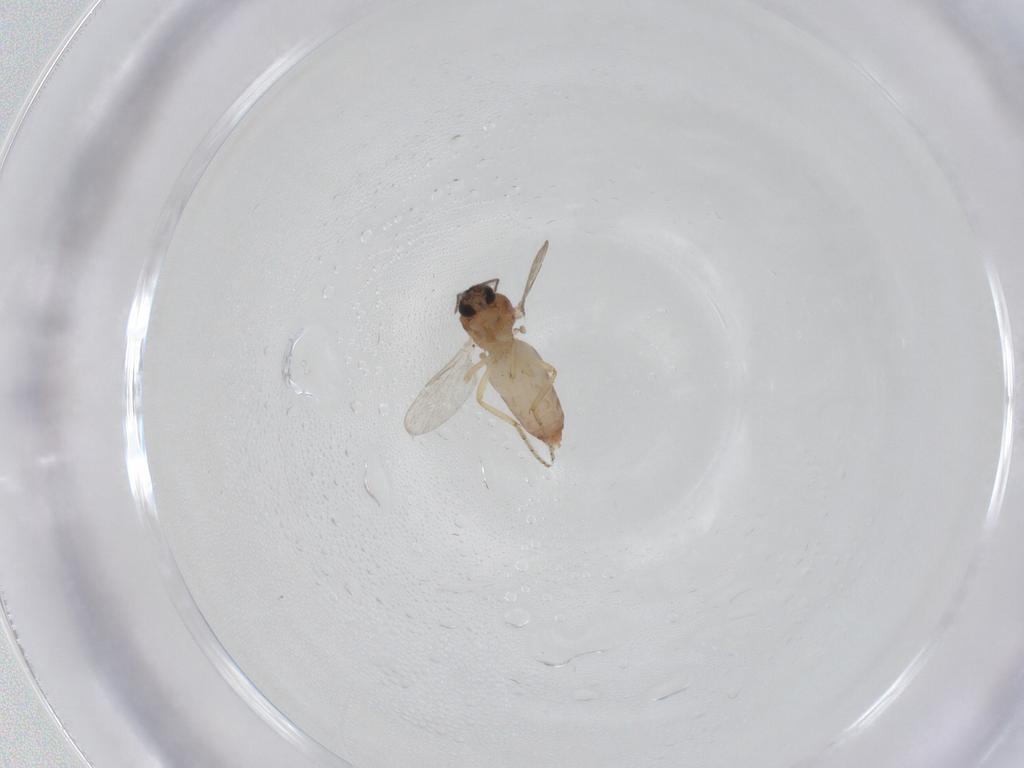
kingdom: Animalia
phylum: Arthropoda
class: Insecta
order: Diptera
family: Ceratopogonidae
